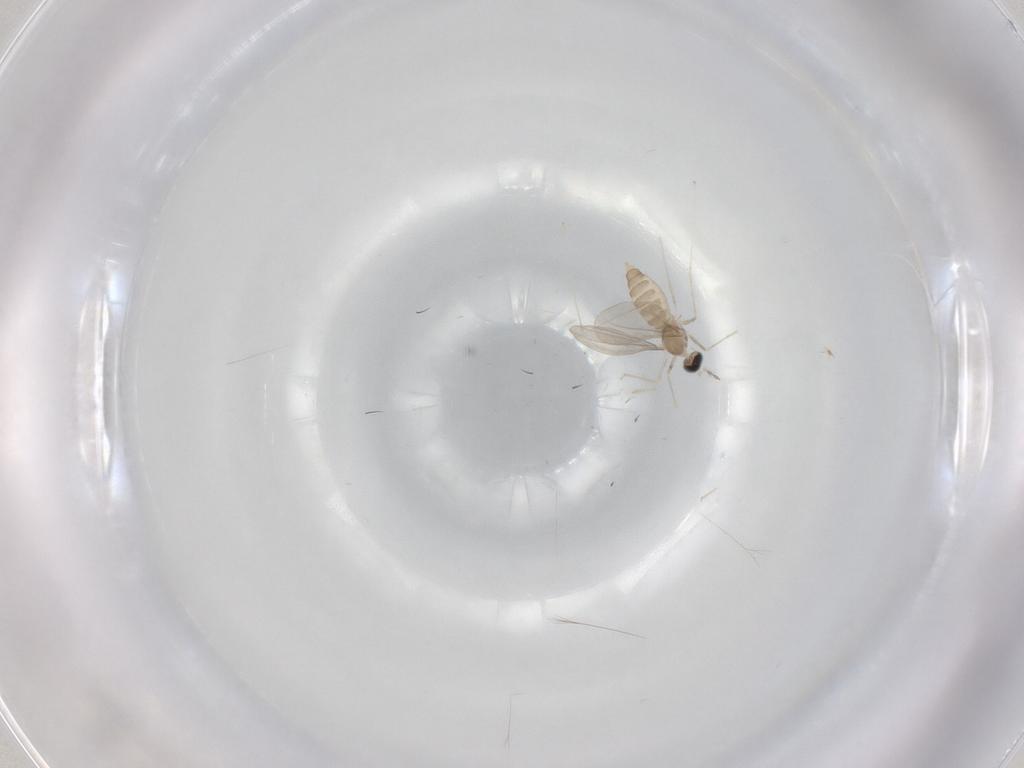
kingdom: Animalia
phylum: Arthropoda
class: Insecta
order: Diptera
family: Cecidomyiidae
